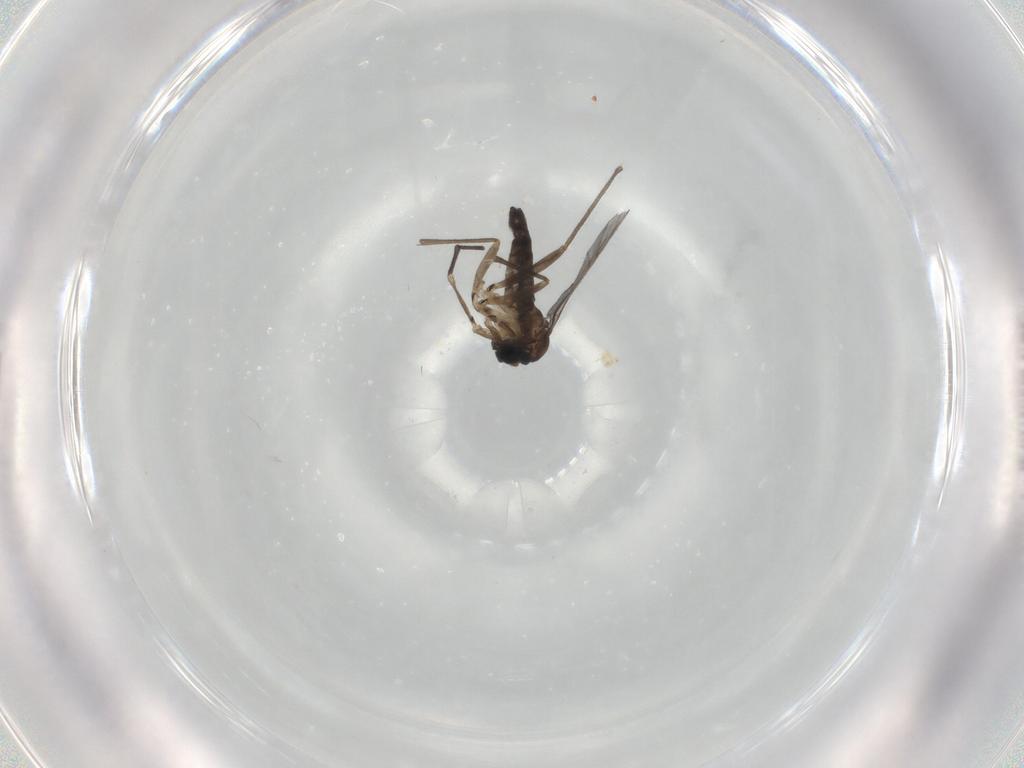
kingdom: Animalia
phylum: Arthropoda
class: Insecta
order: Diptera
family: Sciaridae
